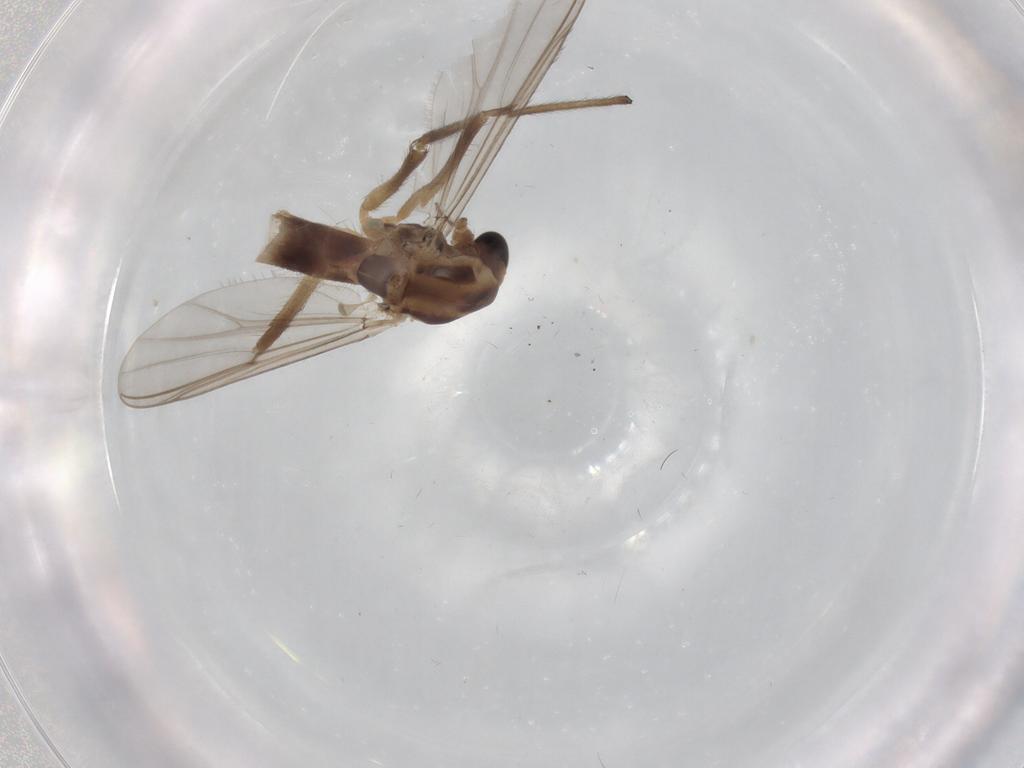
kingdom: Animalia
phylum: Arthropoda
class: Insecta
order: Diptera
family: Chironomidae
